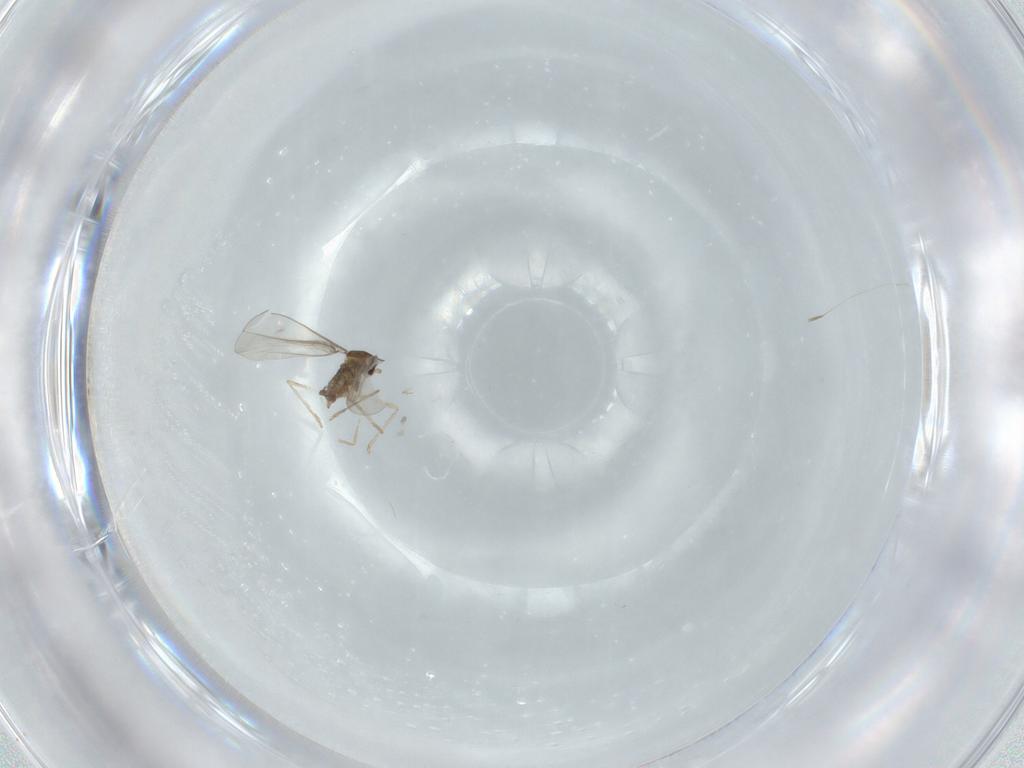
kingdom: Animalia
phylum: Arthropoda
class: Insecta
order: Diptera
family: Cecidomyiidae
